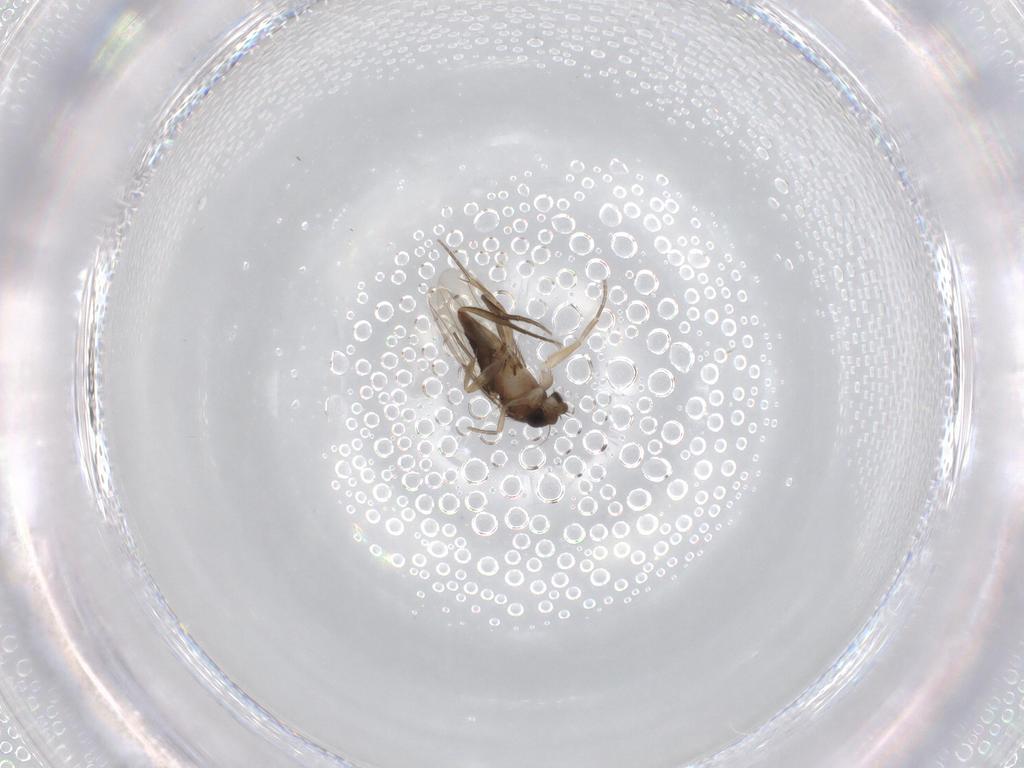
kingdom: Animalia
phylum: Arthropoda
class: Insecta
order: Diptera
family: Phoridae
